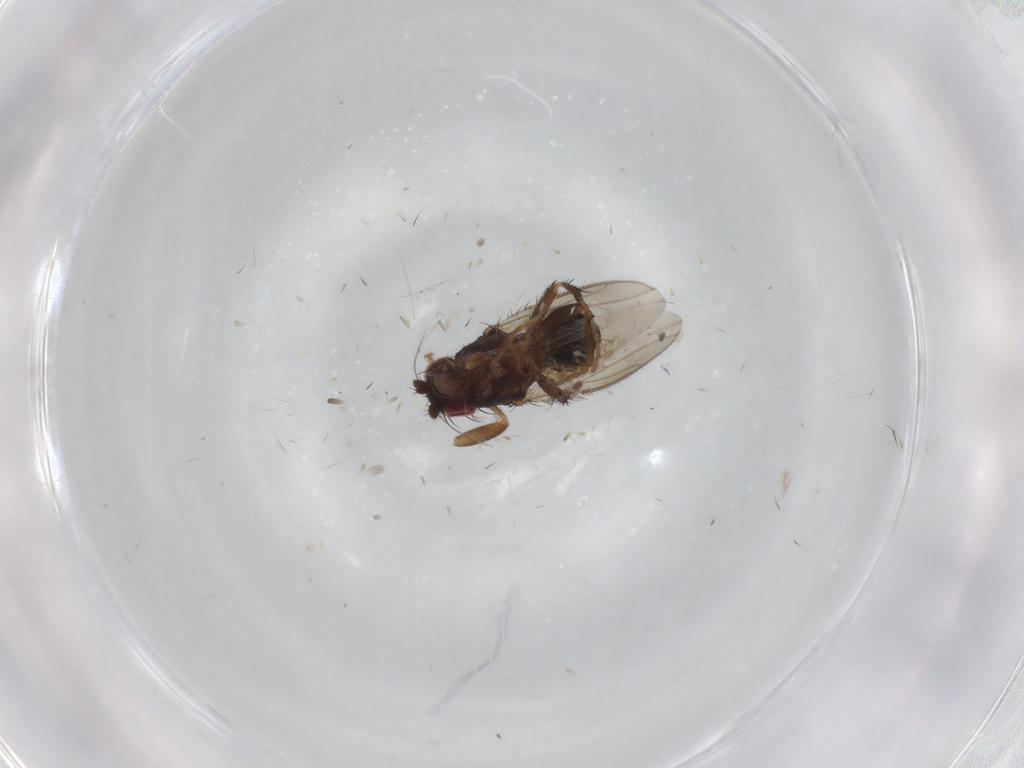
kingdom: Animalia
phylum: Arthropoda
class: Insecta
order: Diptera
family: Sphaeroceridae
